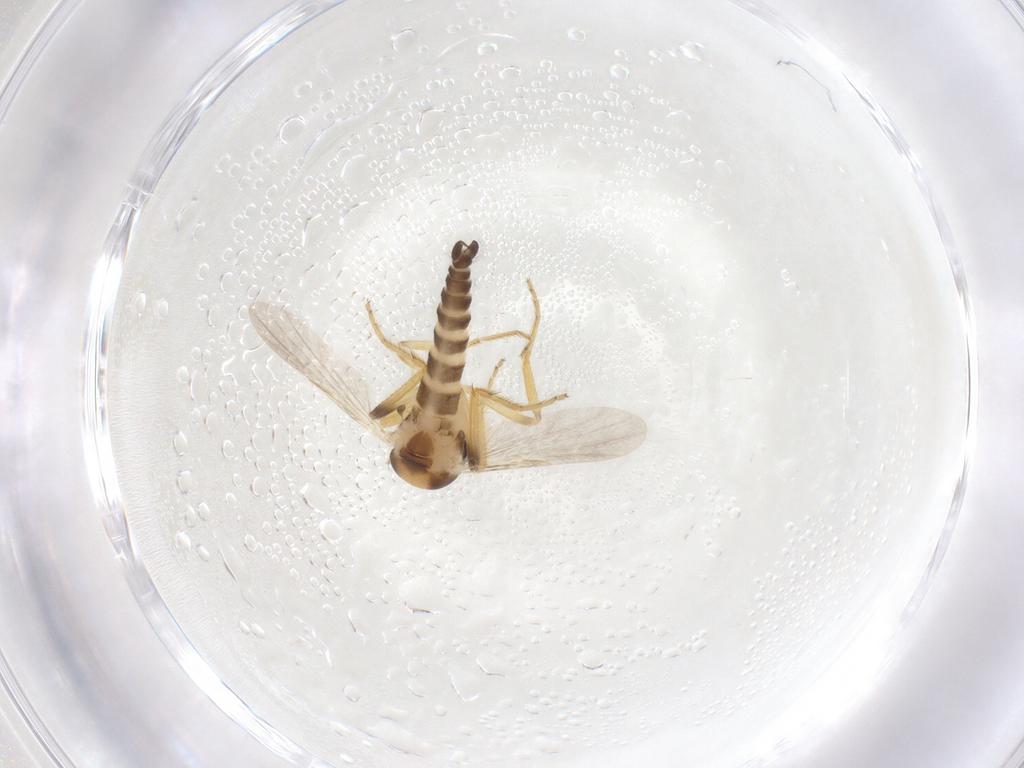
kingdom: Animalia
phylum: Arthropoda
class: Insecta
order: Diptera
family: Ceratopogonidae
